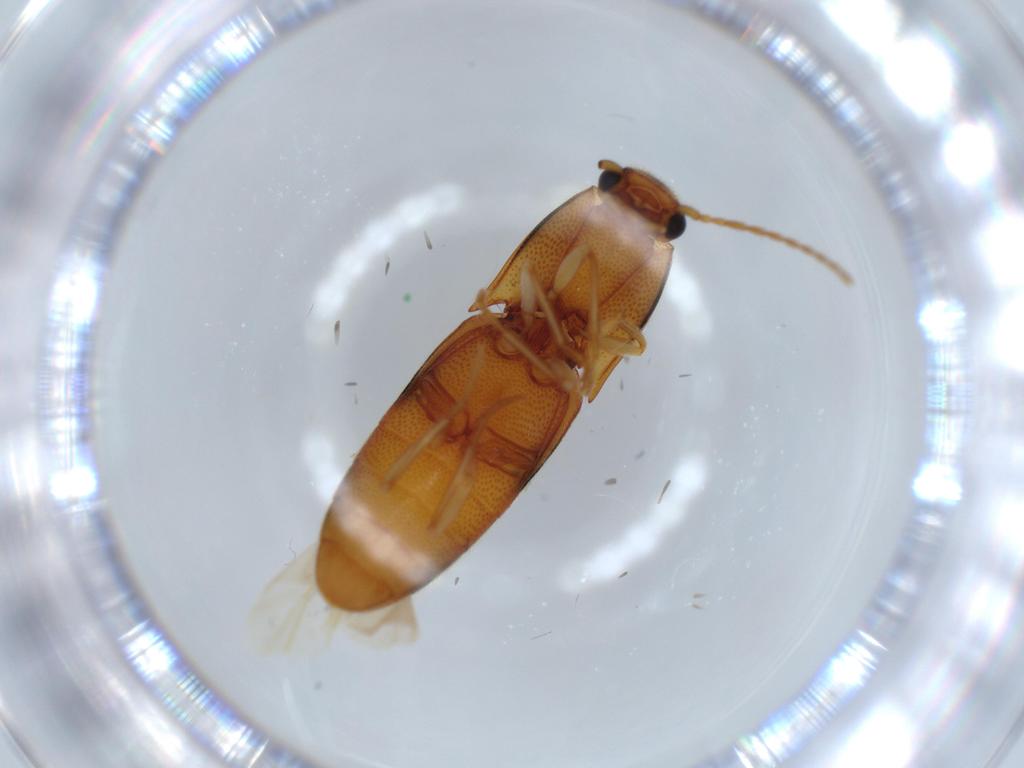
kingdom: Animalia
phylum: Arthropoda
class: Insecta
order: Coleoptera
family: Elateridae
